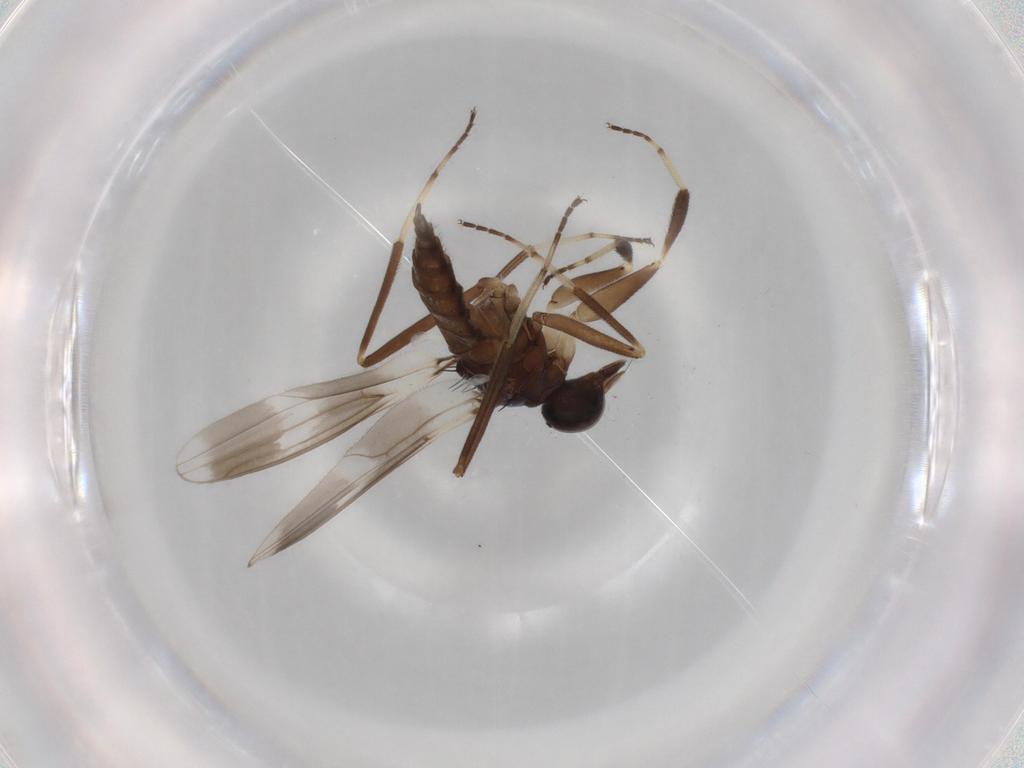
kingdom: Animalia
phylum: Arthropoda
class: Insecta
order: Diptera
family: Hybotidae
